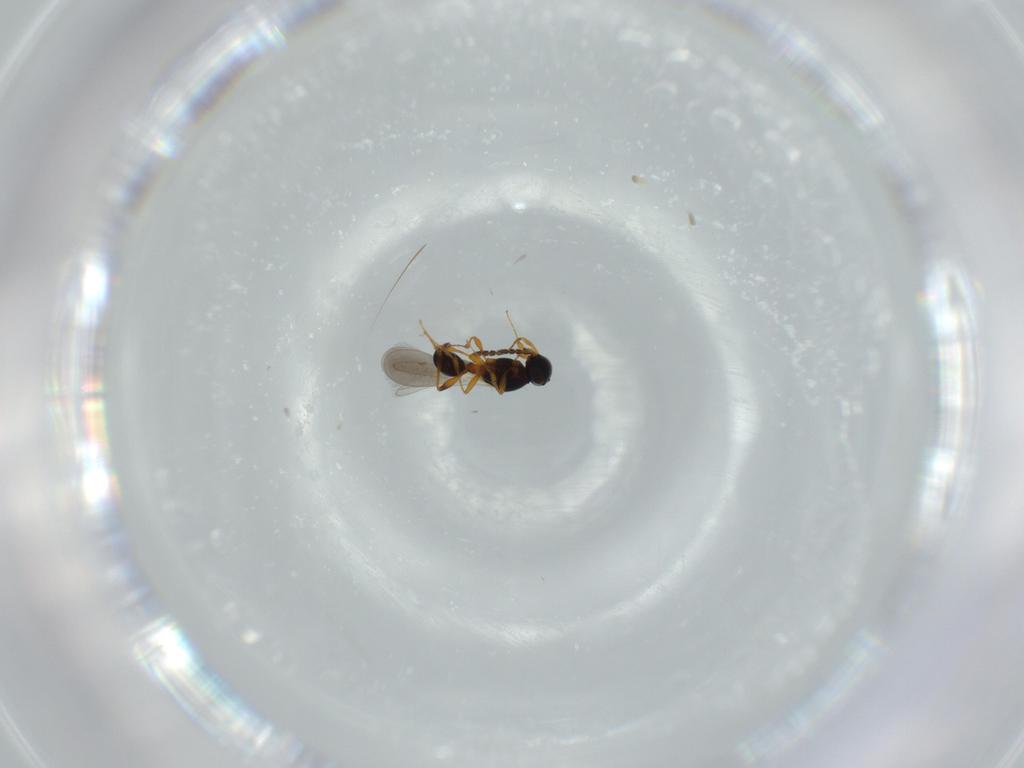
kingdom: Animalia
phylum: Arthropoda
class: Insecta
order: Hymenoptera
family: Platygastridae
